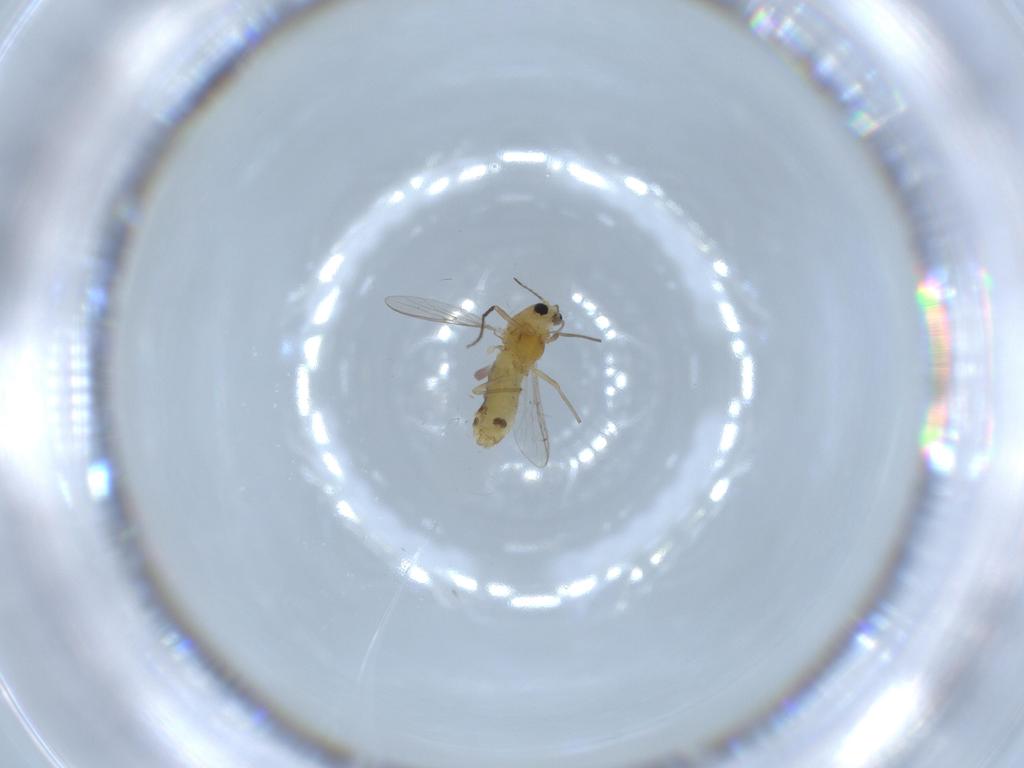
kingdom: Animalia
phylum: Arthropoda
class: Insecta
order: Diptera
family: Chironomidae
